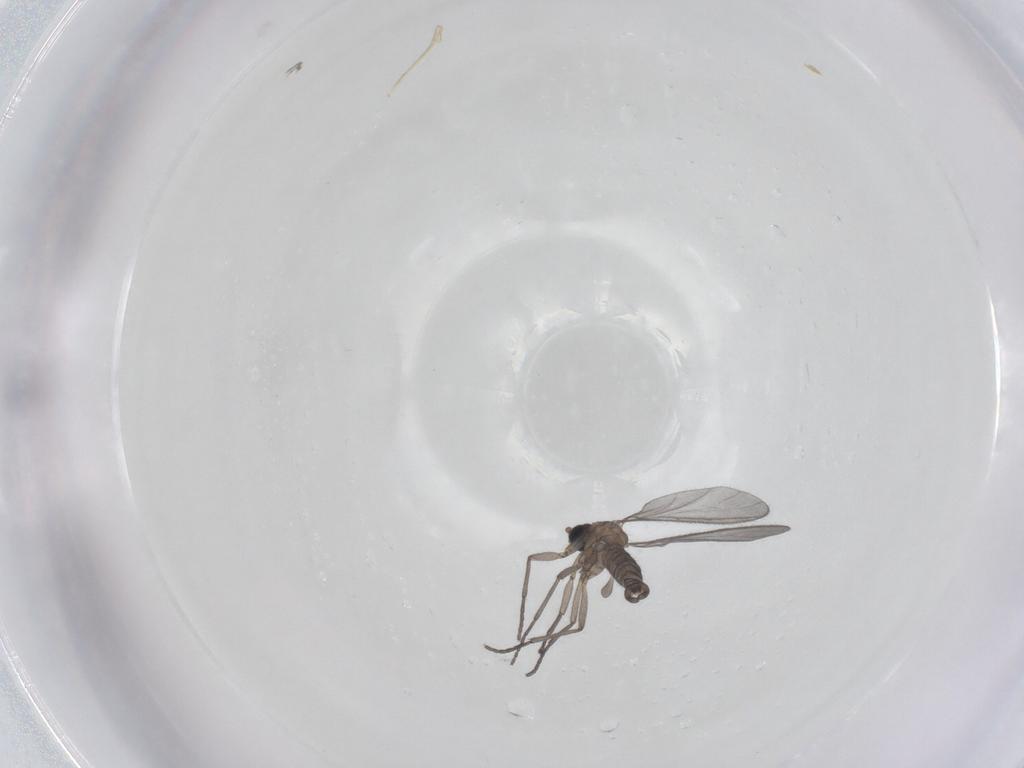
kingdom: Animalia
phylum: Arthropoda
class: Insecta
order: Diptera
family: Sciaridae
